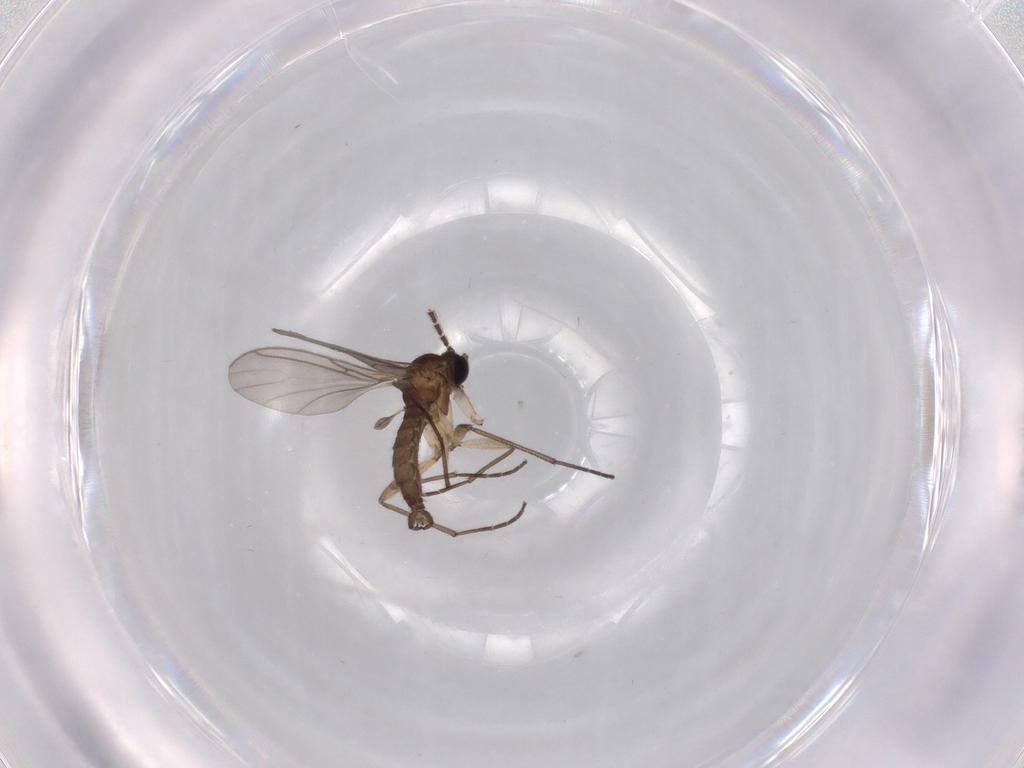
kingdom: Animalia
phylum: Arthropoda
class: Insecta
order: Diptera
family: Sciaridae
